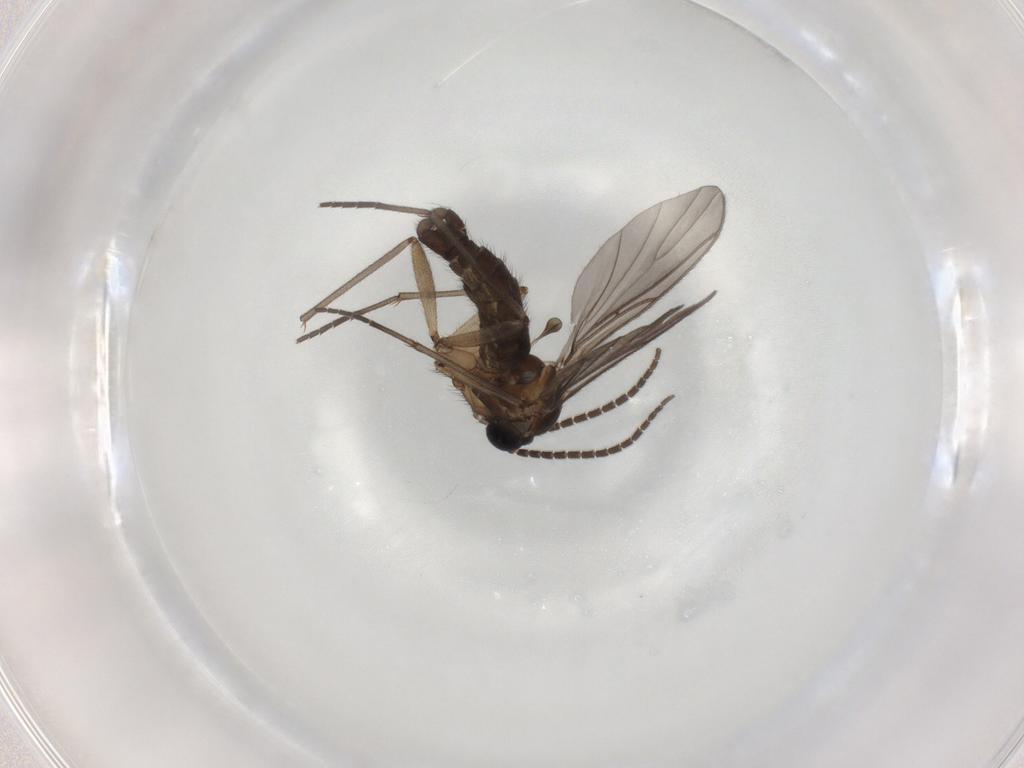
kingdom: Animalia
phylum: Arthropoda
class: Insecta
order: Diptera
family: Sciaridae
